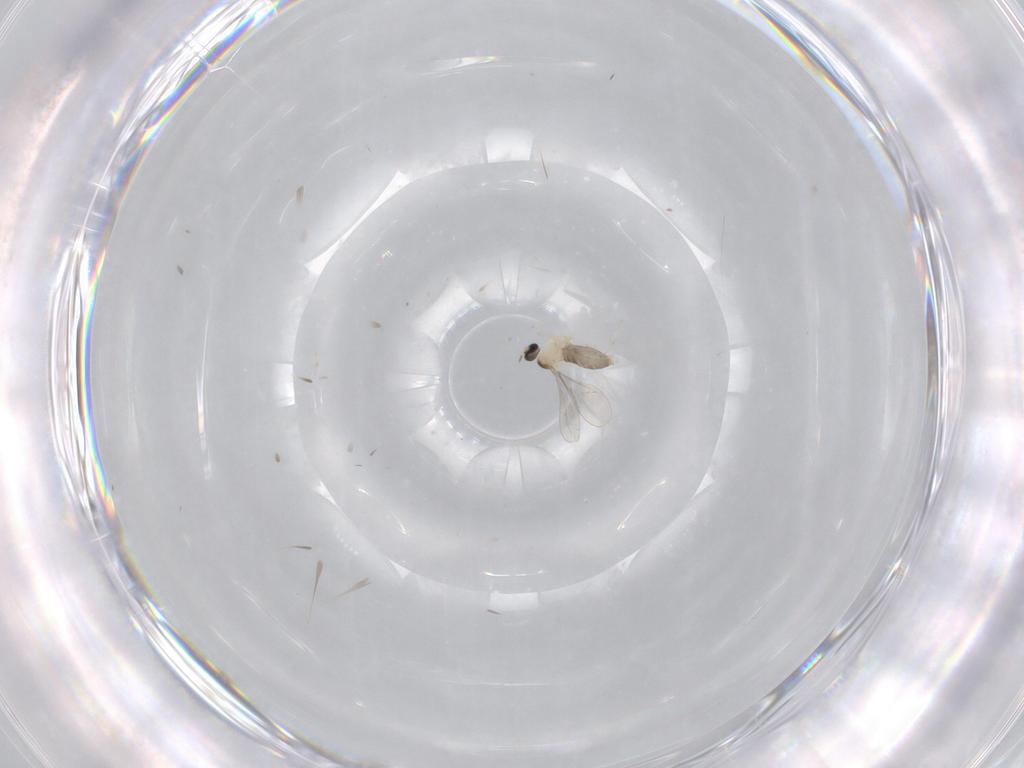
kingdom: Animalia
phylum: Arthropoda
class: Insecta
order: Diptera
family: Cecidomyiidae
